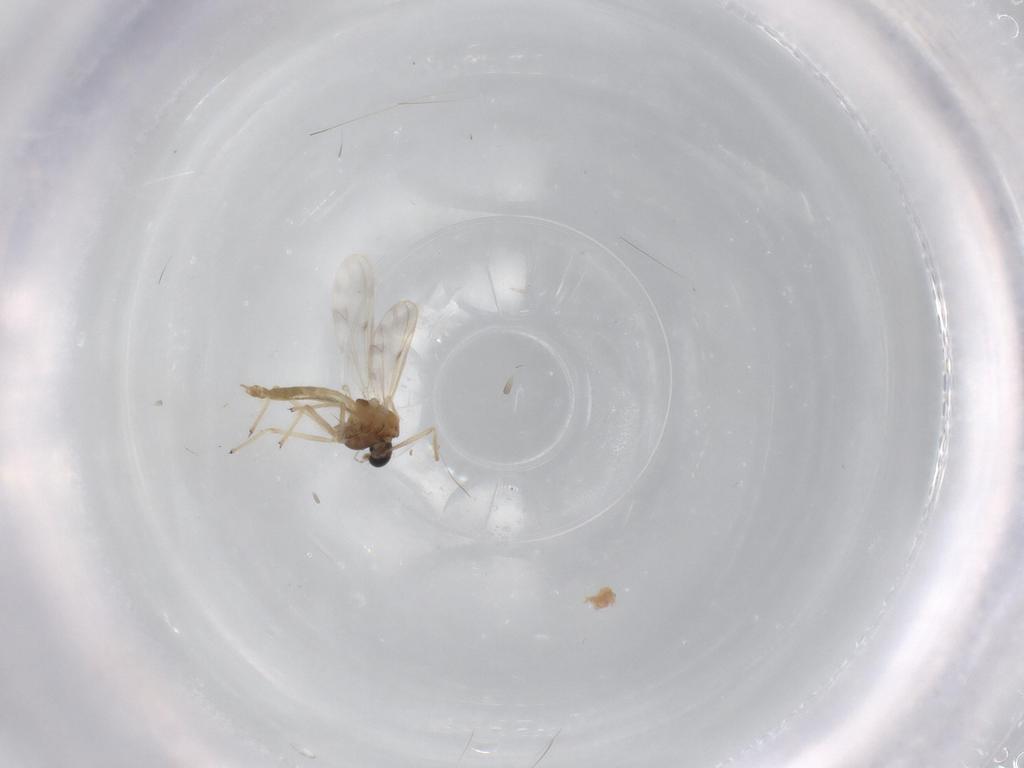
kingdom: Animalia
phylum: Arthropoda
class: Insecta
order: Diptera
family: Chironomidae
